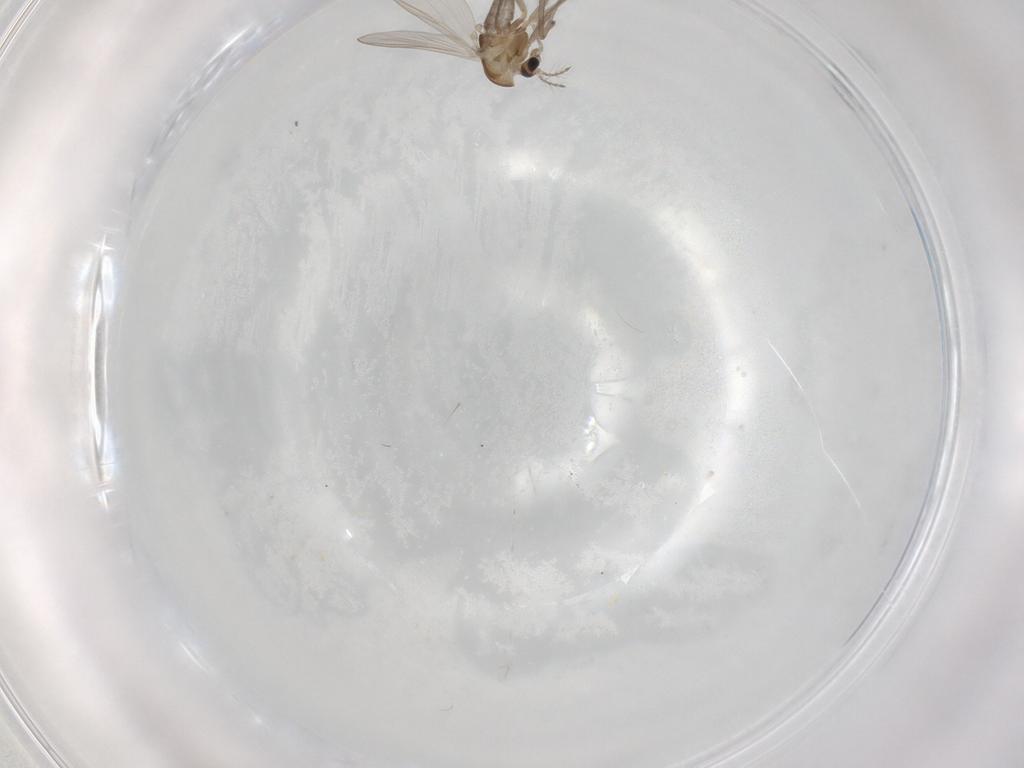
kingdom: Animalia
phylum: Arthropoda
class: Insecta
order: Diptera
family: Chironomidae
